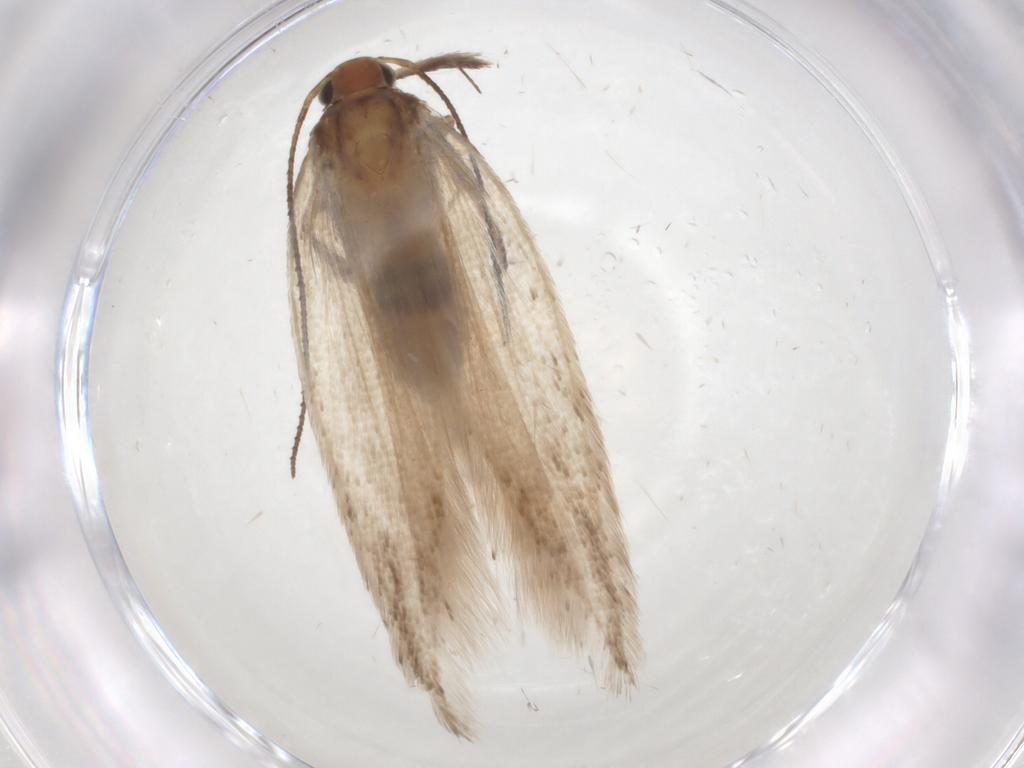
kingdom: Animalia
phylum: Arthropoda
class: Insecta
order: Lepidoptera
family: Gelechiidae
